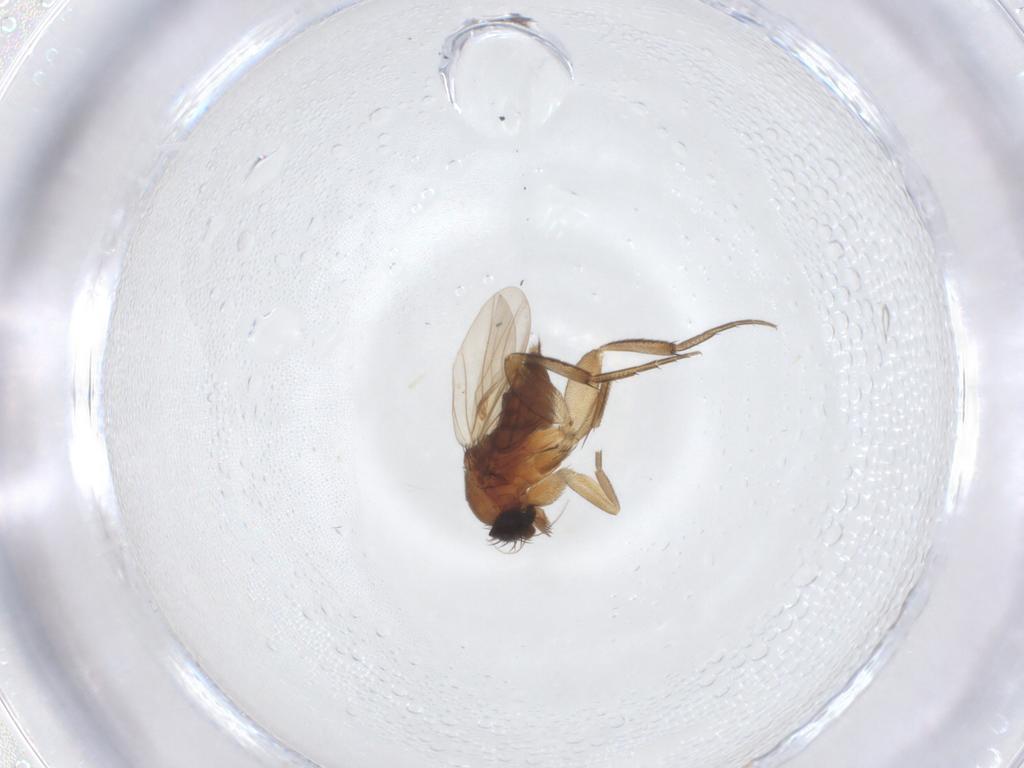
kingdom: Animalia
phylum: Arthropoda
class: Insecta
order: Diptera
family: Phoridae
